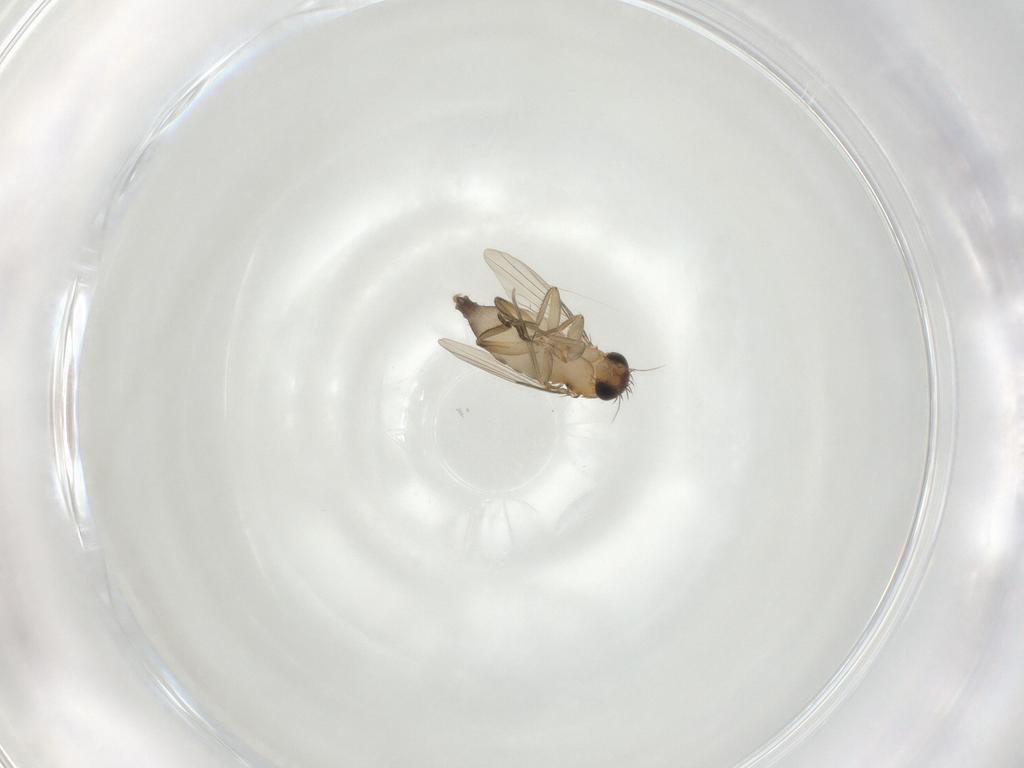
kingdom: Animalia
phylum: Arthropoda
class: Insecta
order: Diptera
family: Phoridae
